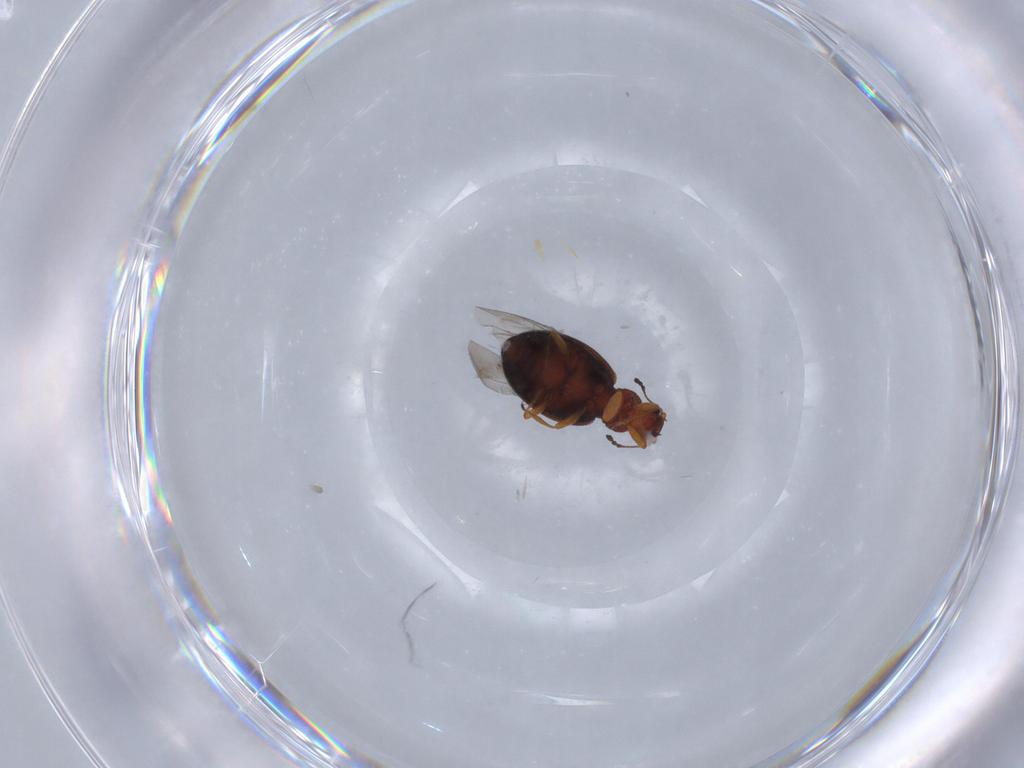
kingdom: Animalia
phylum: Arthropoda
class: Insecta
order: Coleoptera
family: Latridiidae
